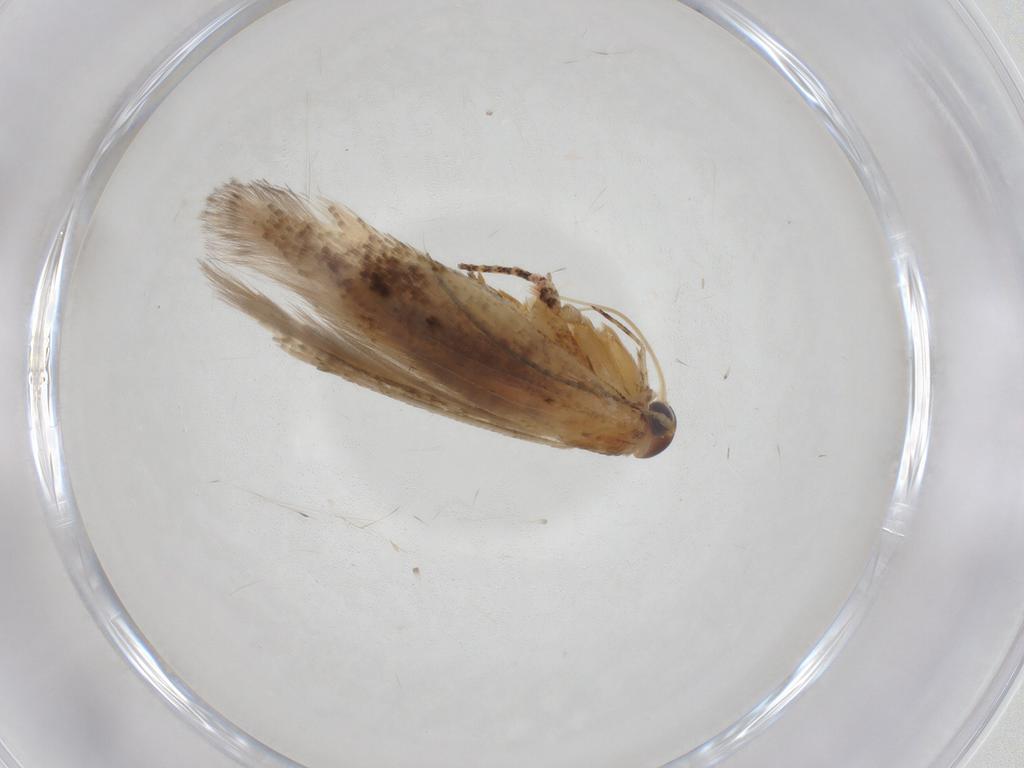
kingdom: Animalia
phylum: Arthropoda
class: Insecta
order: Lepidoptera
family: Gelechiidae
